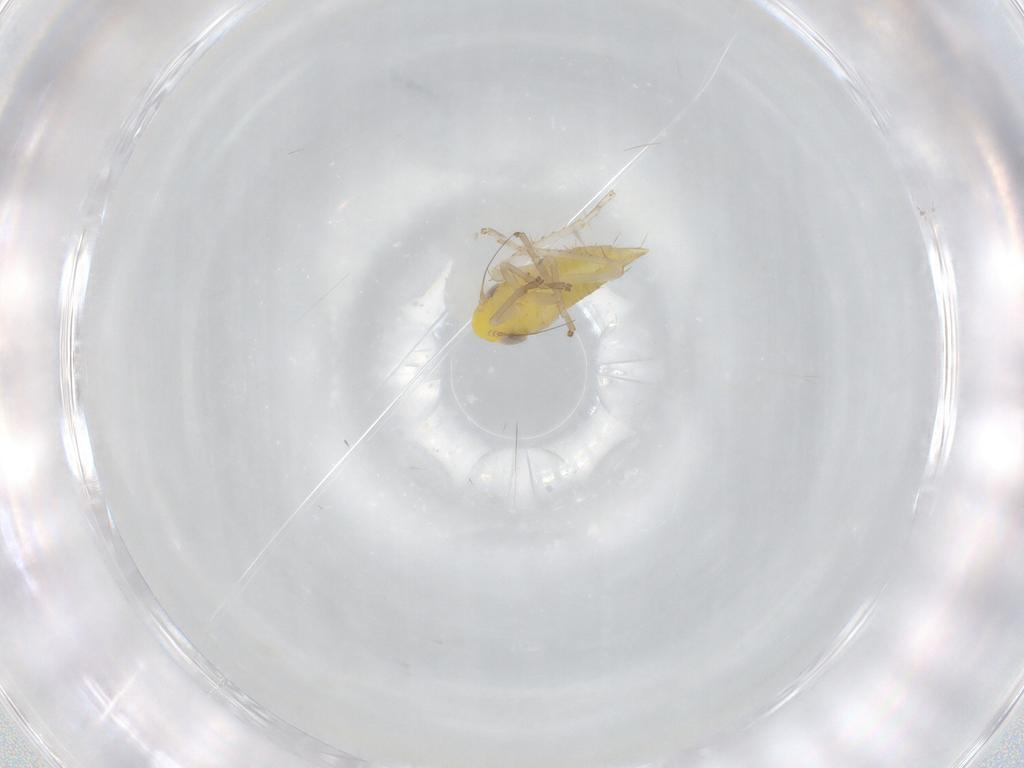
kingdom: Animalia
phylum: Arthropoda
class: Insecta
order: Hemiptera
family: Cicadellidae
